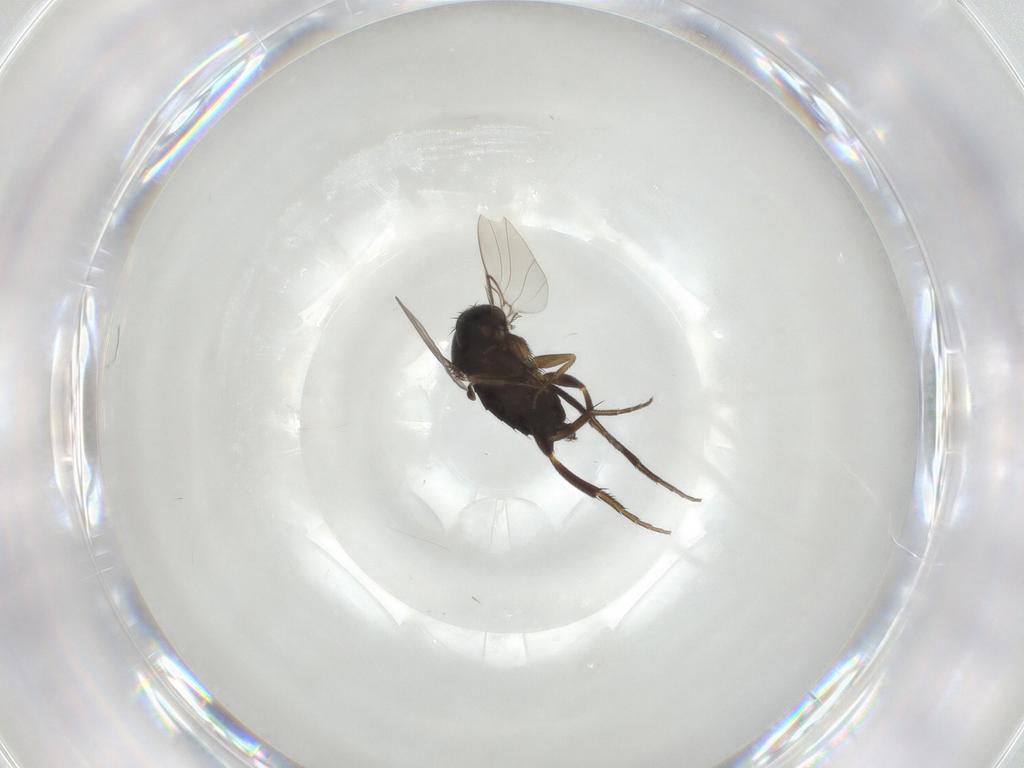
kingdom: Animalia
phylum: Arthropoda
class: Insecta
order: Diptera
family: Phoridae
